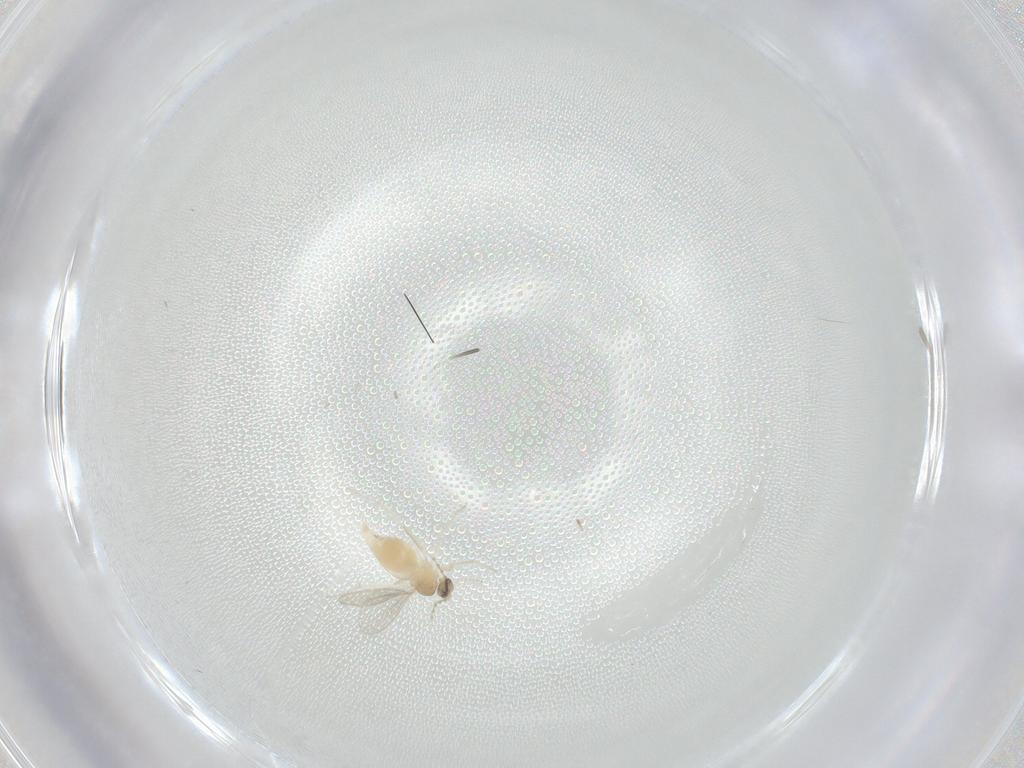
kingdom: Animalia
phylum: Arthropoda
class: Insecta
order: Diptera
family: Cecidomyiidae
